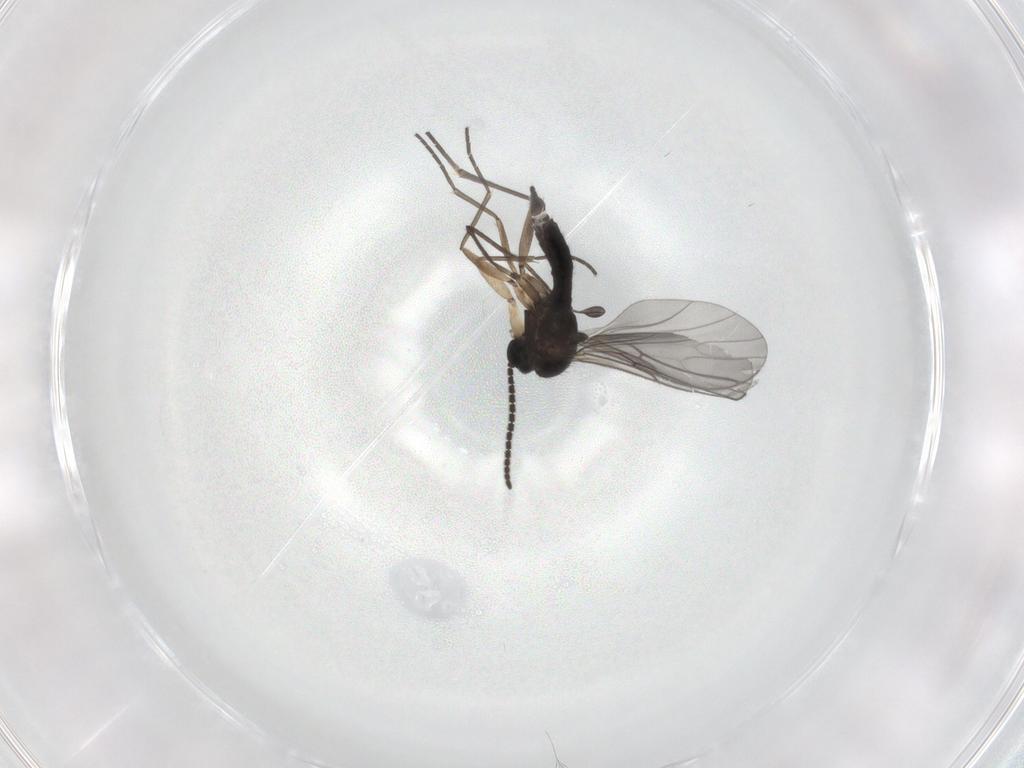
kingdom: Animalia
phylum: Arthropoda
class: Insecta
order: Diptera
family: Sciaridae
